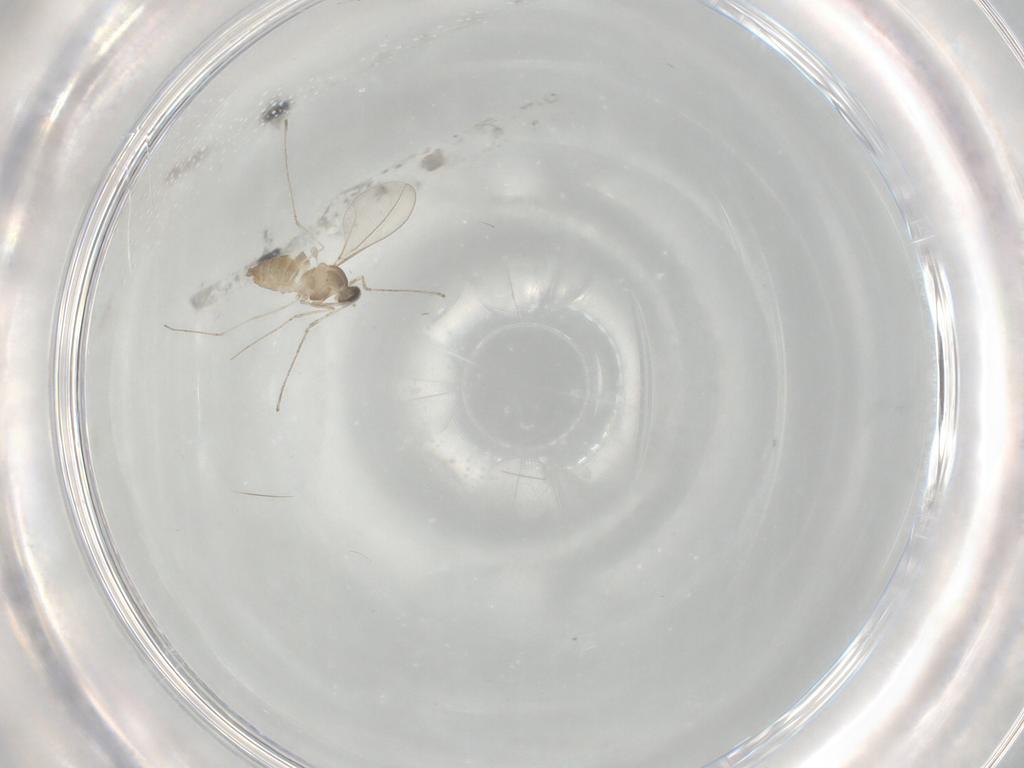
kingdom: Animalia
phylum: Arthropoda
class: Insecta
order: Diptera
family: Cecidomyiidae
